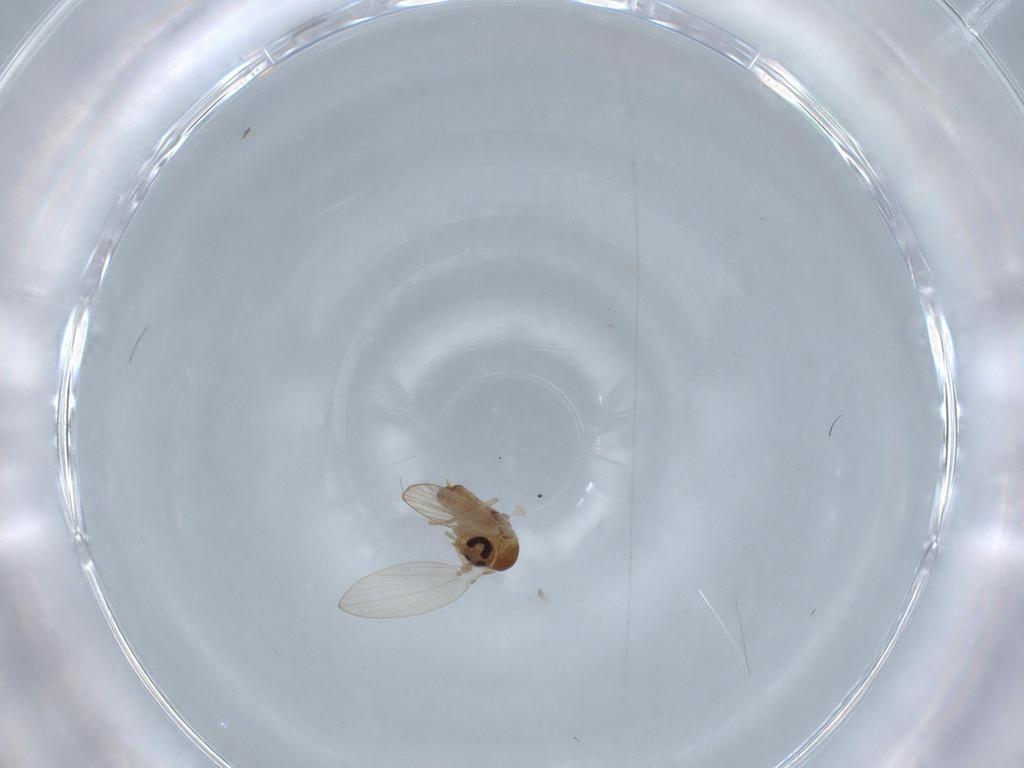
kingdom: Animalia
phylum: Arthropoda
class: Insecta
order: Diptera
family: Psychodidae
